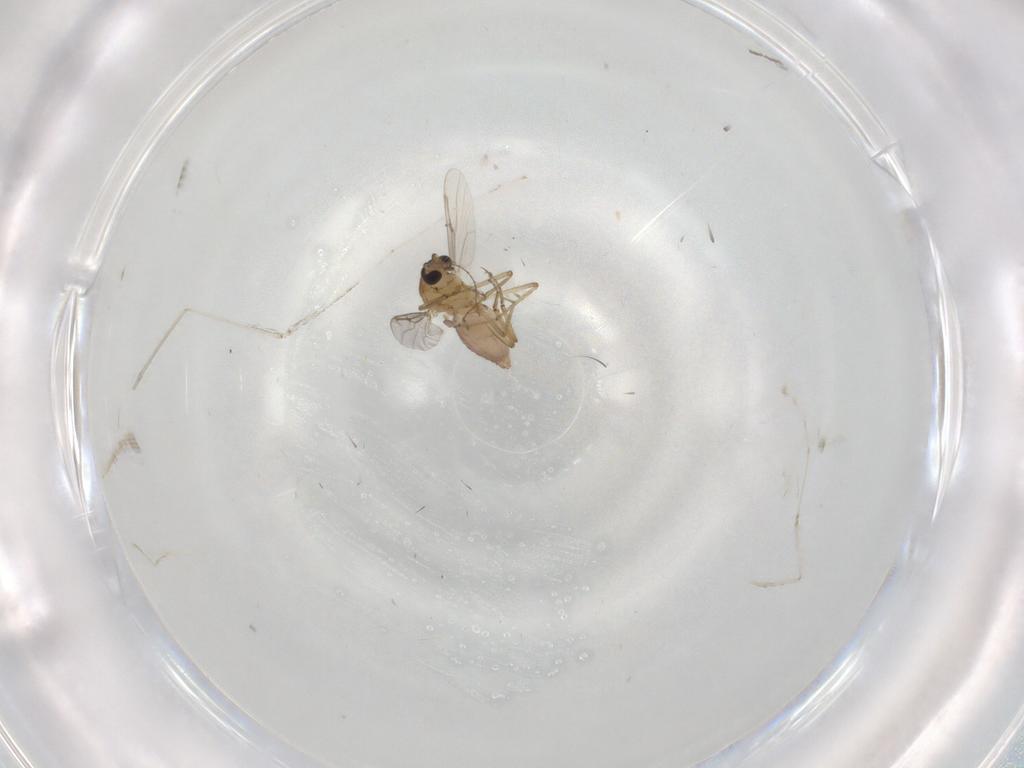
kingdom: Animalia
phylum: Arthropoda
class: Insecta
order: Diptera
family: Cecidomyiidae
